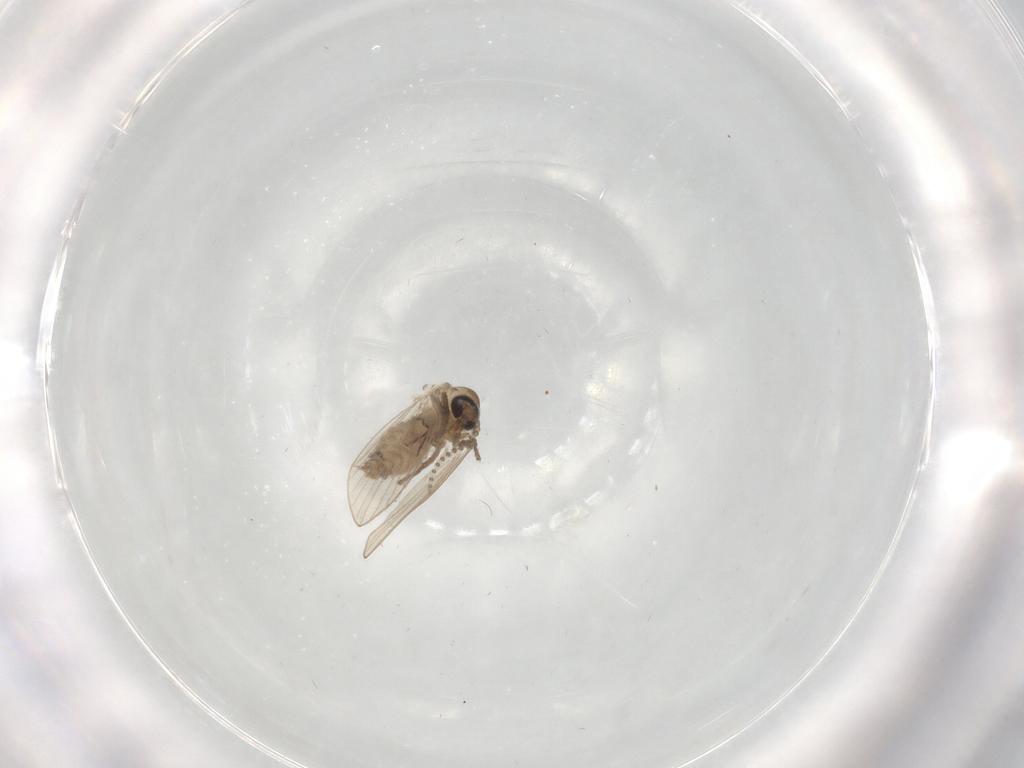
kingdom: Animalia
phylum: Arthropoda
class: Insecta
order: Diptera
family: Psychodidae
